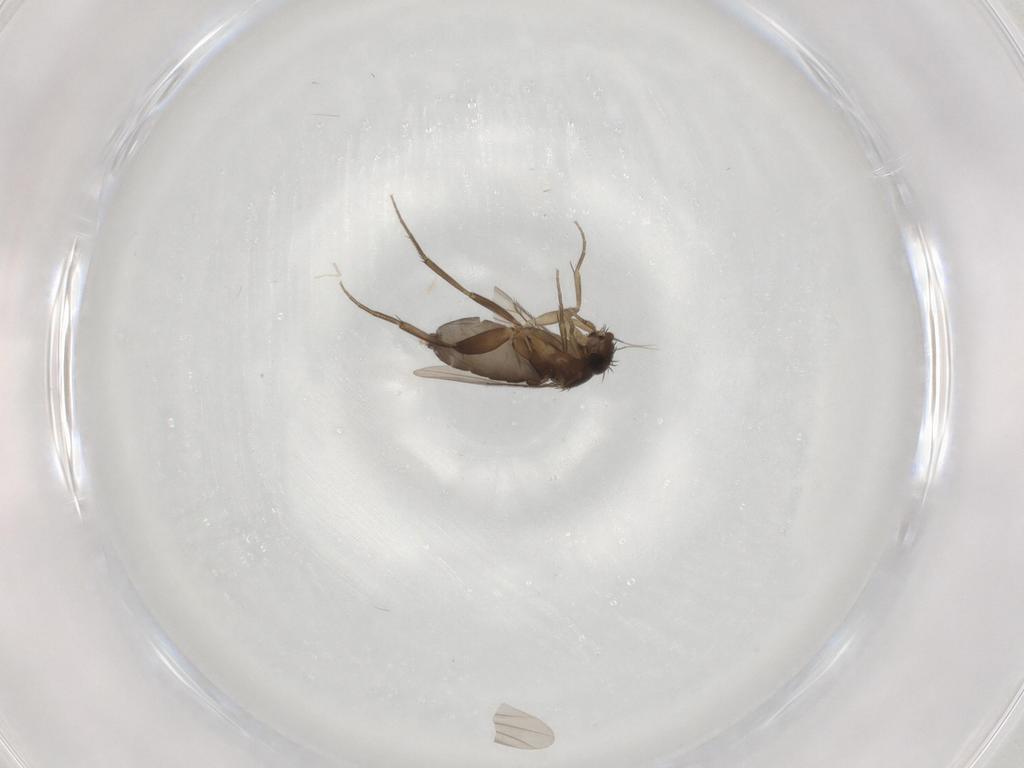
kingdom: Animalia
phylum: Arthropoda
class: Insecta
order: Diptera
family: Phoridae
